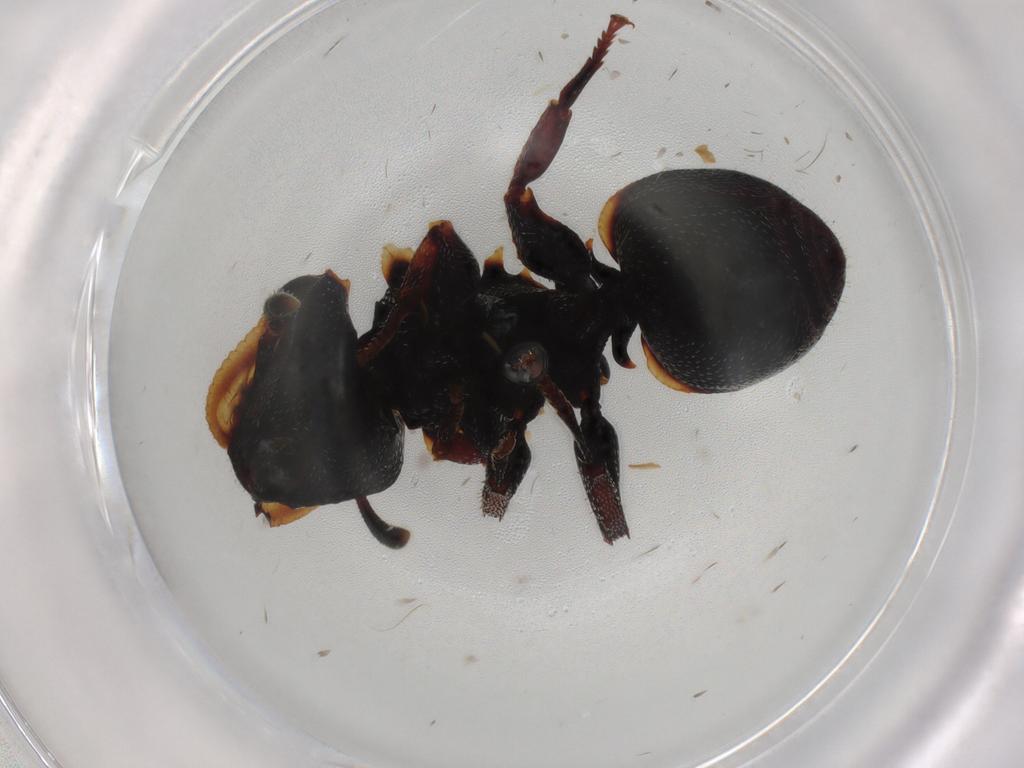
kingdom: Animalia
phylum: Arthropoda
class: Insecta
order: Hymenoptera
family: Formicidae
